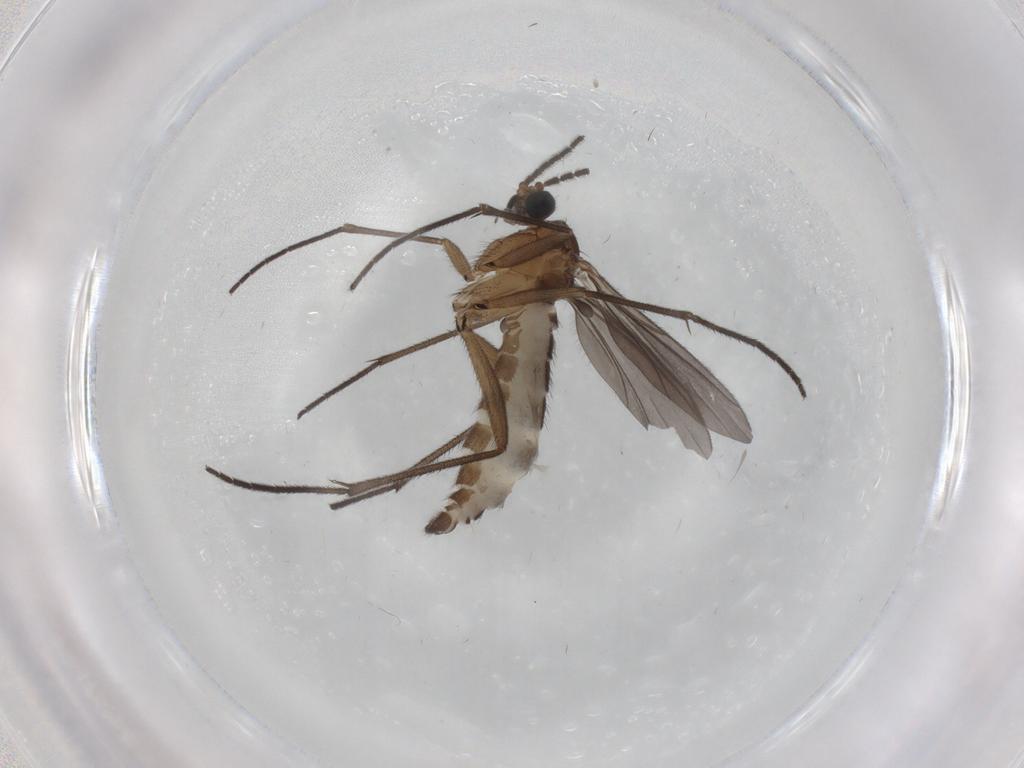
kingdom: Animalia
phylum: Arthropoda
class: Insecta
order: Diptera
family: Sciaridae
